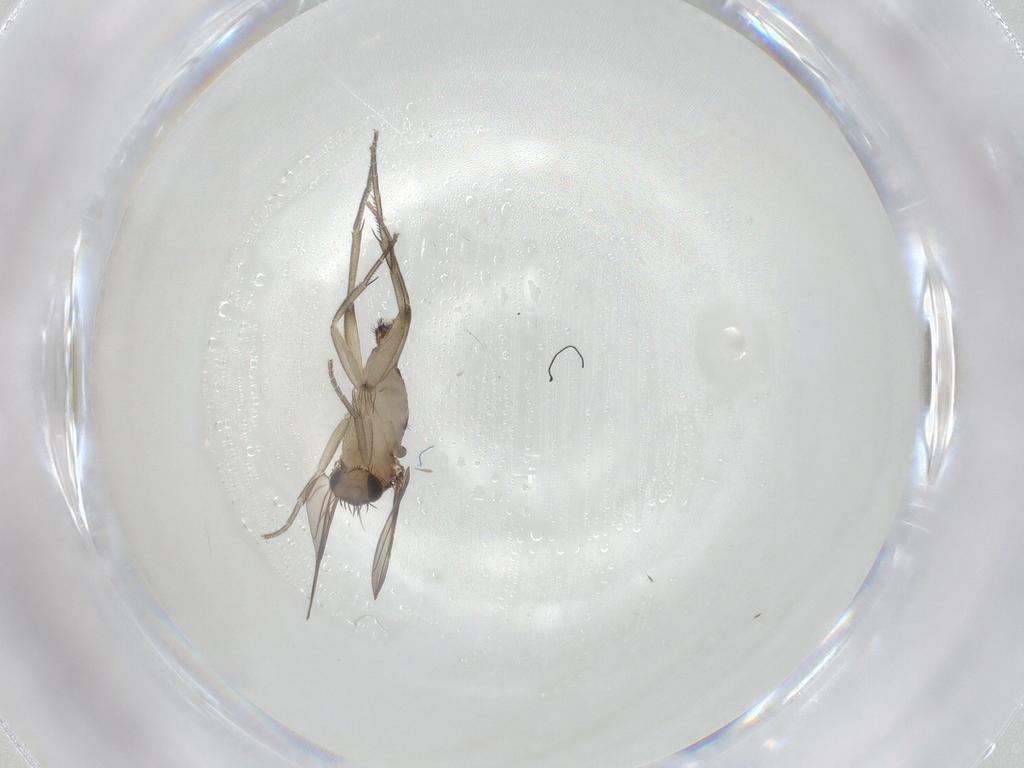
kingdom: Animalia
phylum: Arthropoda
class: Insecta
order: Diptera
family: Phoridae
